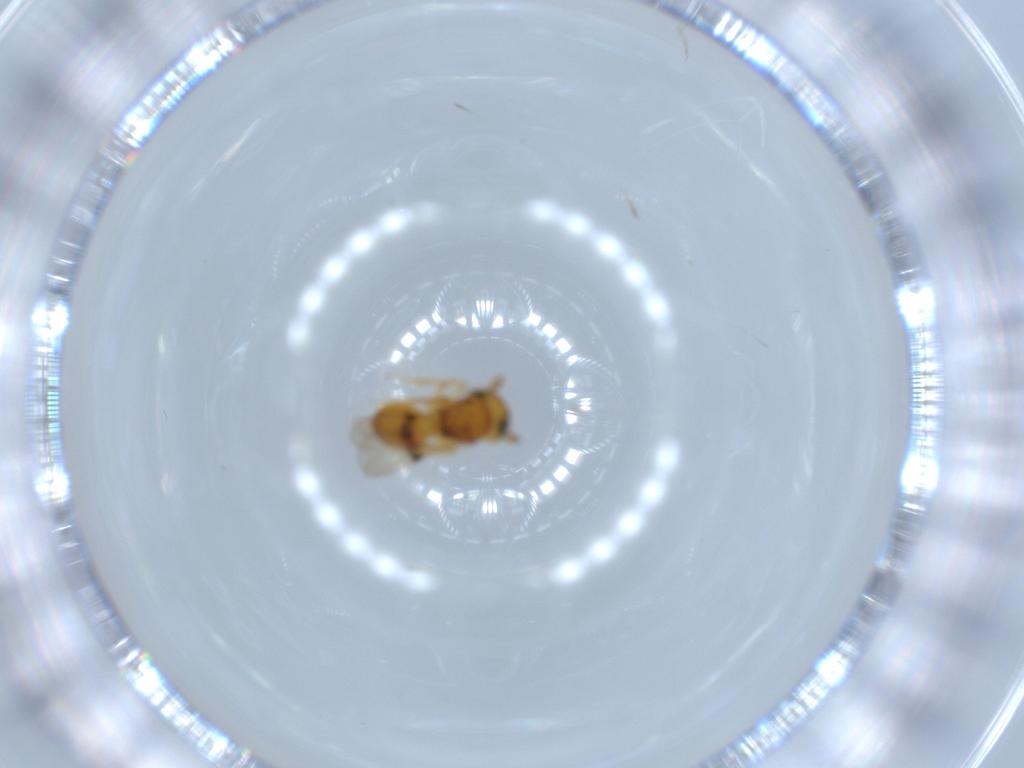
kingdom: Animalia
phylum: Arthropoda
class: Insecta
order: Hymenoptera
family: Scelionidae
